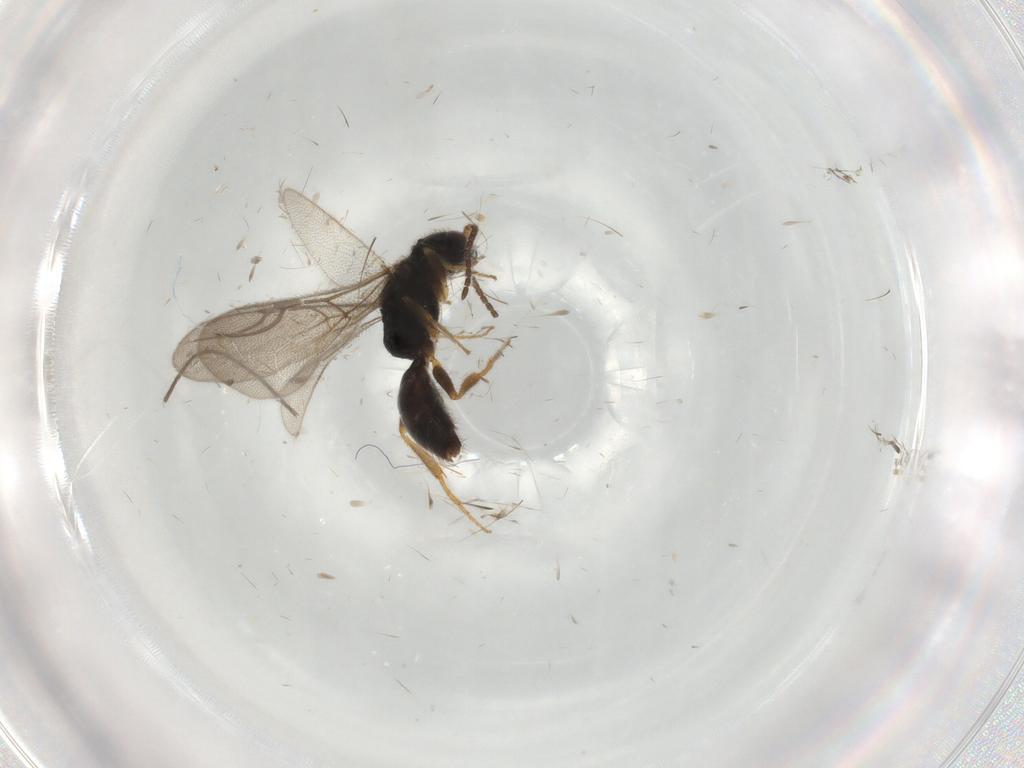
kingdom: Animalia
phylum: Arthropoda
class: Insecta
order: Hymenoptera
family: Bethylidae
